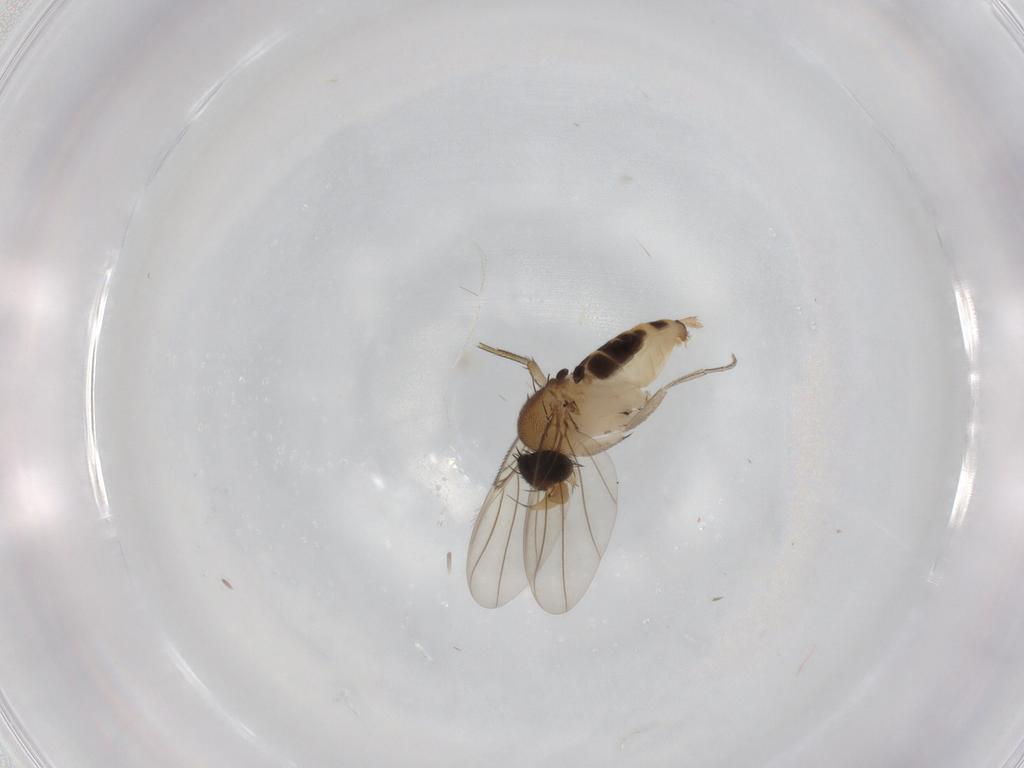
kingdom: Animalia
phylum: Arthropoda
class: Insecta
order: Diptera
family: Phoridae
